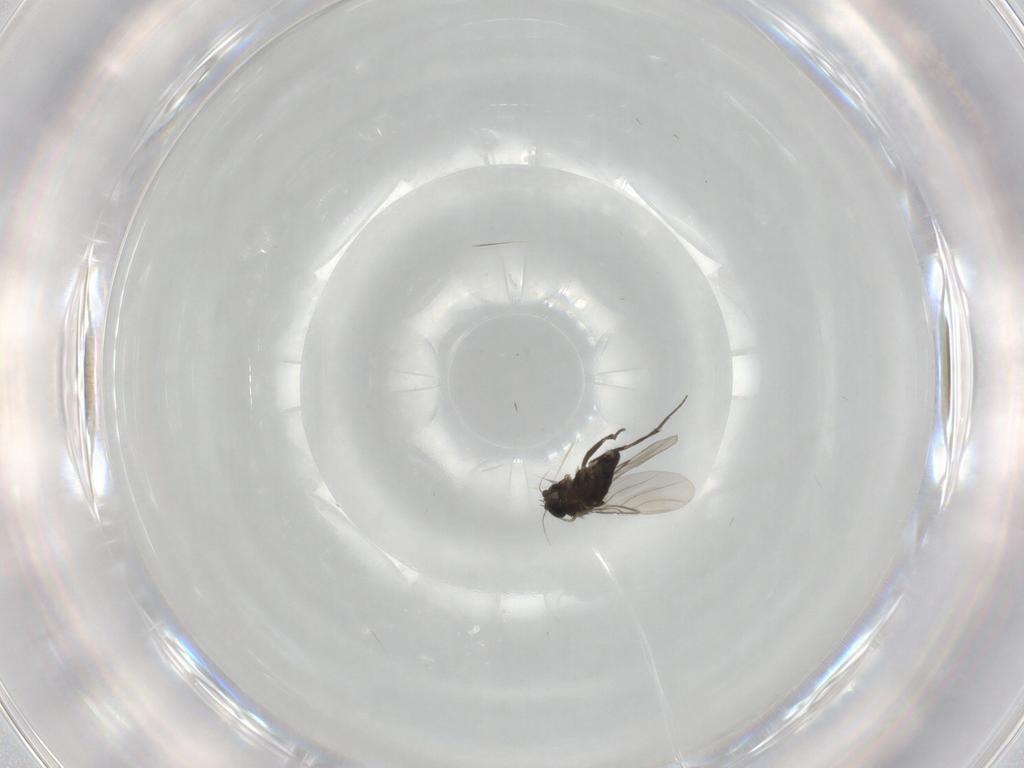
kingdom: Animalia
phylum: Arthropoda
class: Insecta
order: Diptera
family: Phoridae
